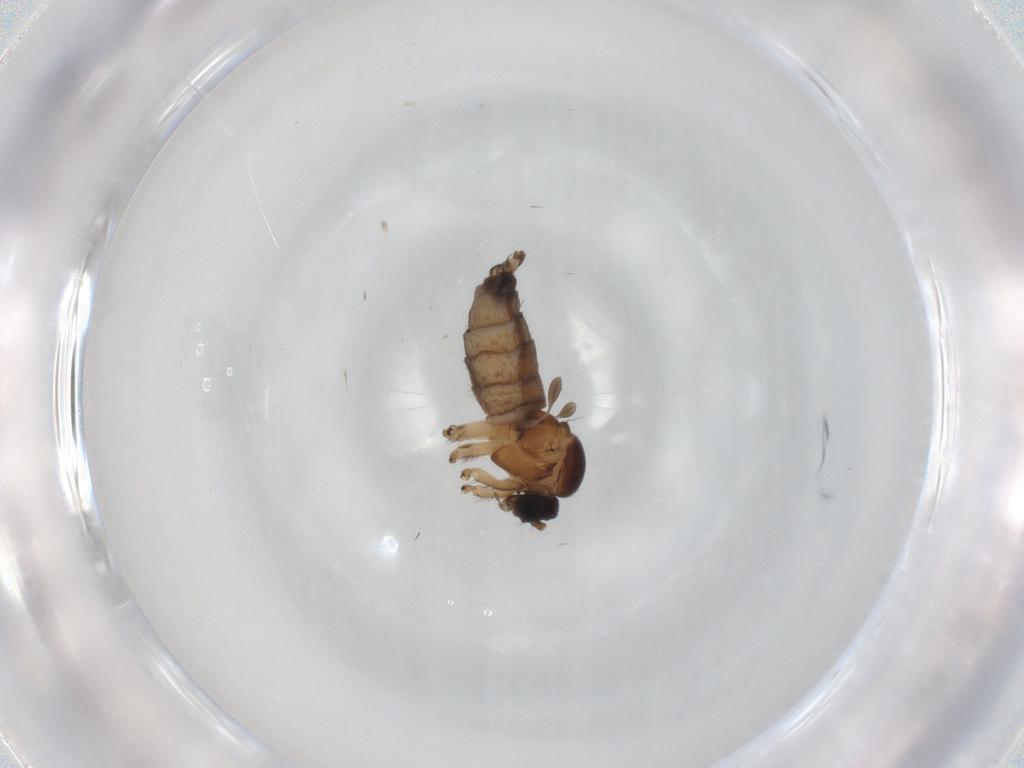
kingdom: Animalia
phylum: Arthropoda
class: Insecta
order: Diptera
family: Sciaridae
